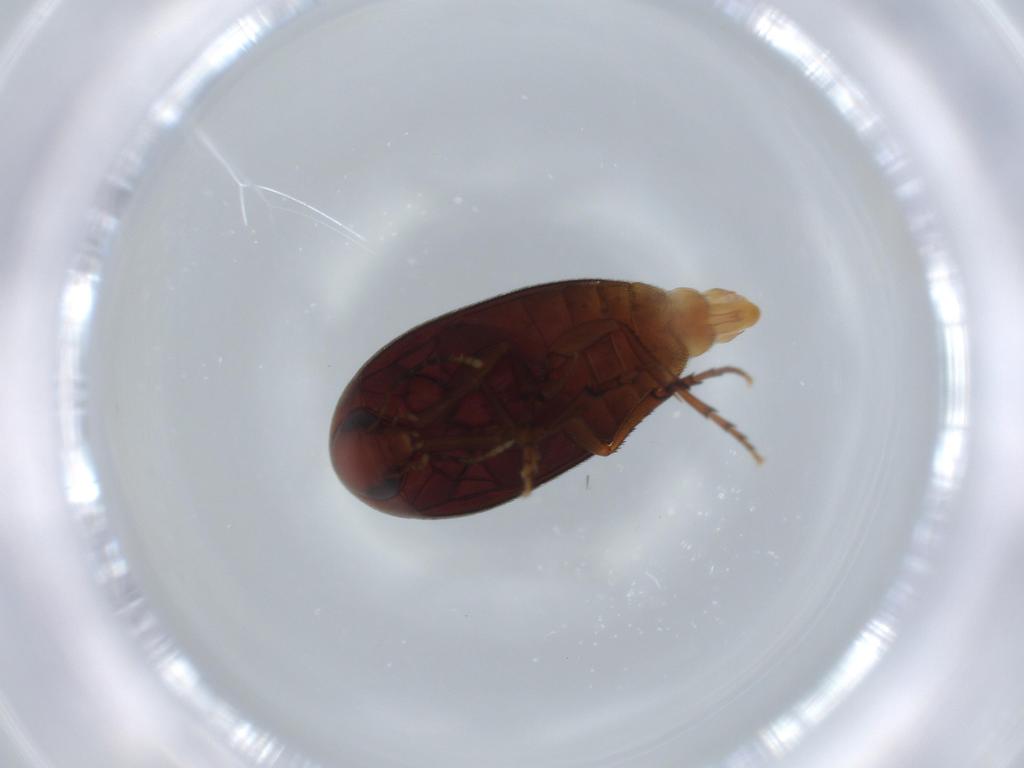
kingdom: Animalia
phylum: Arthropoda
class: Insecta
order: Coleoptera
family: Eucinetidae
